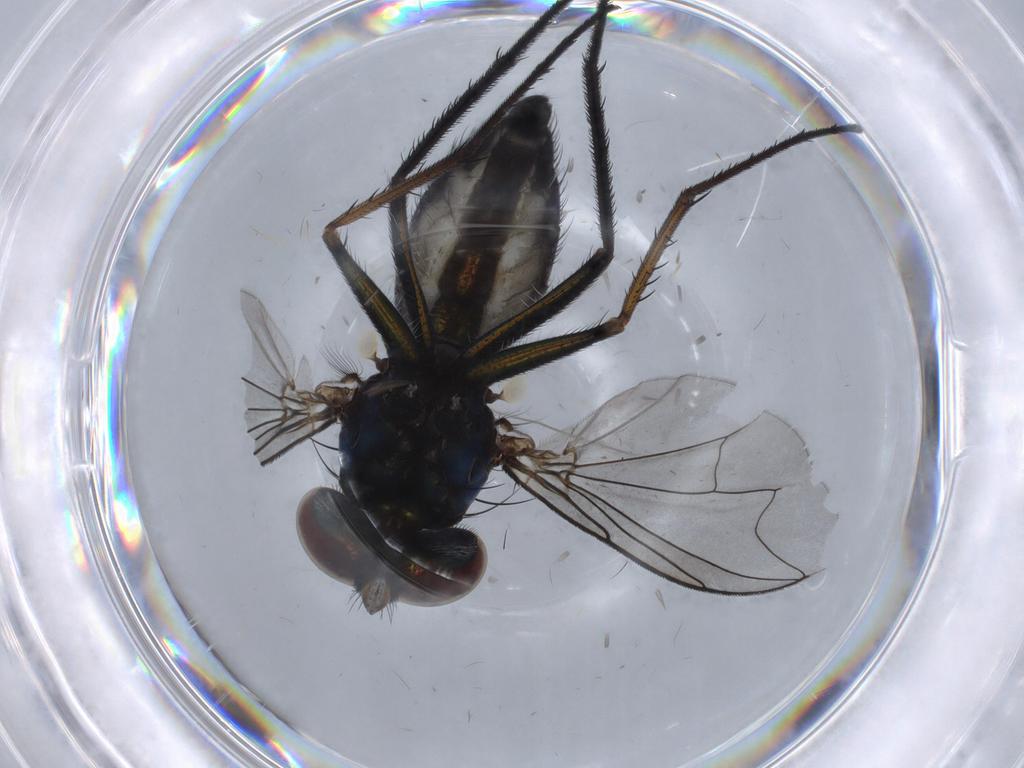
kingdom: Animalia
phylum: Arthropoda
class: Insecta
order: Diptera
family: Dolichopodidae
